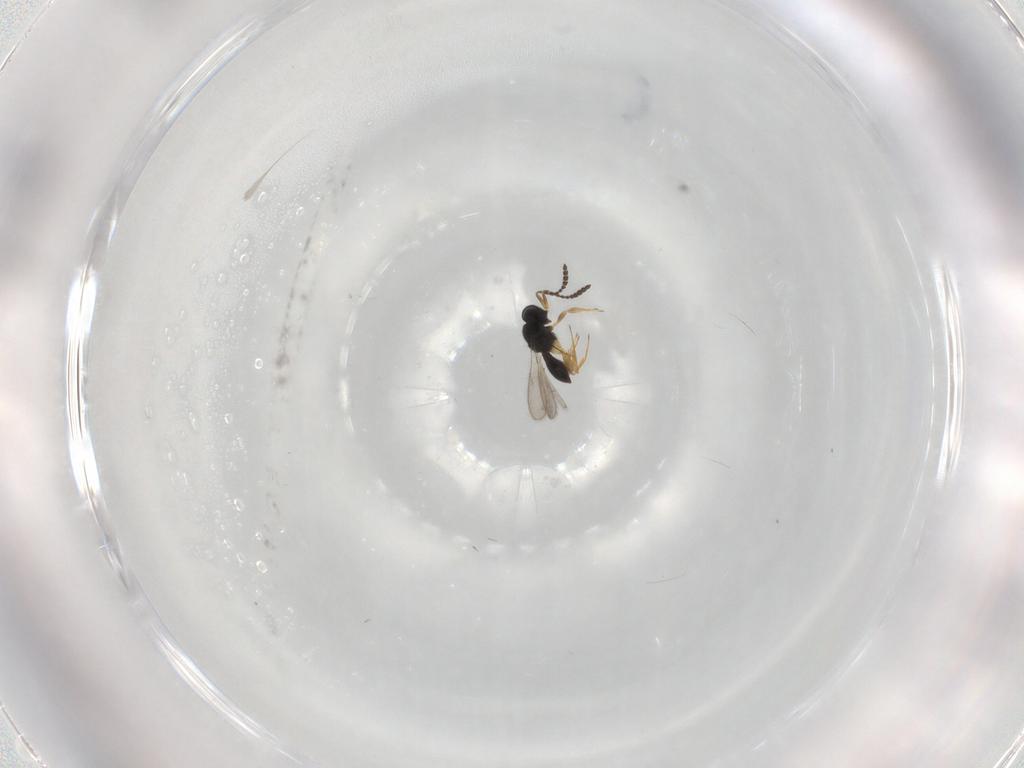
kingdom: Animalia
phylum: Arthropoda
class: Insecta
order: Hymenoptera
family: Scelionidae
